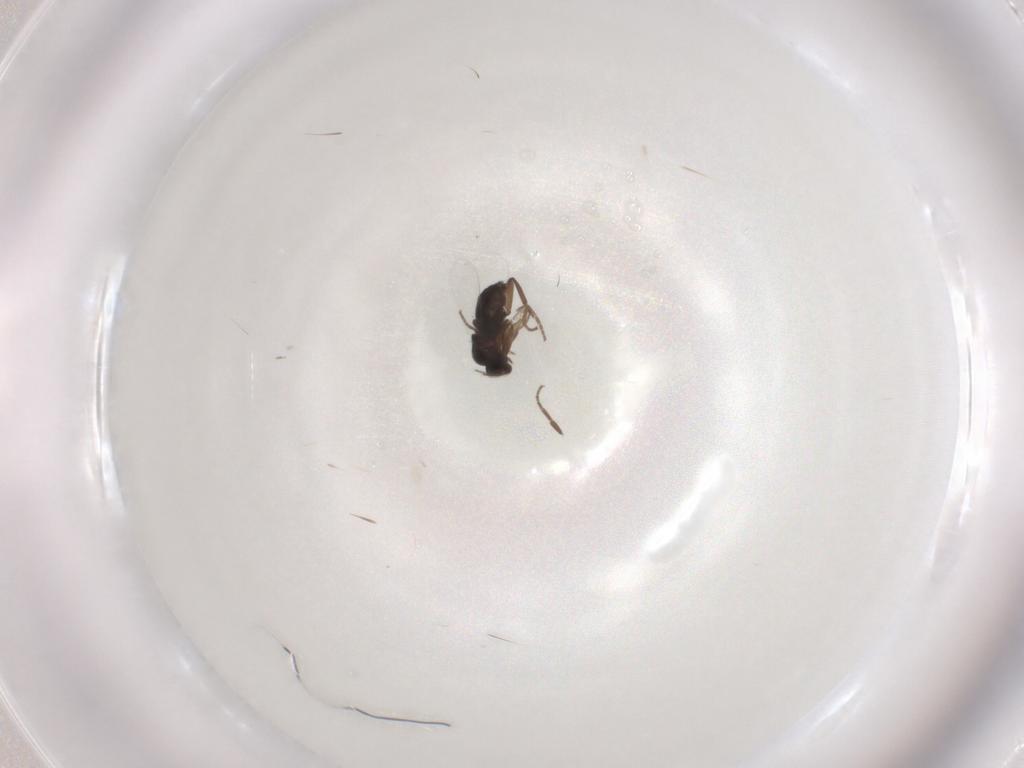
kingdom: Animalia
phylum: Arthropoda
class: Insecta
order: Diptera
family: Phoridae
